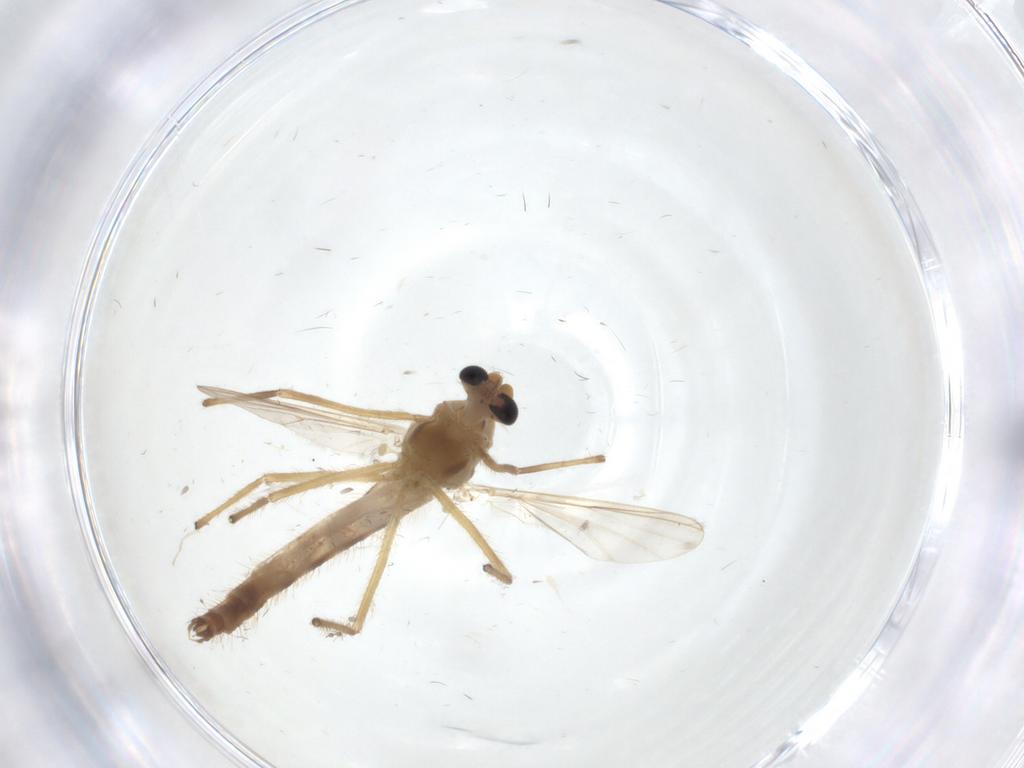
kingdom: Animalia
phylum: Arthropoda
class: Insecta
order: Diptera
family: Chironomidae
